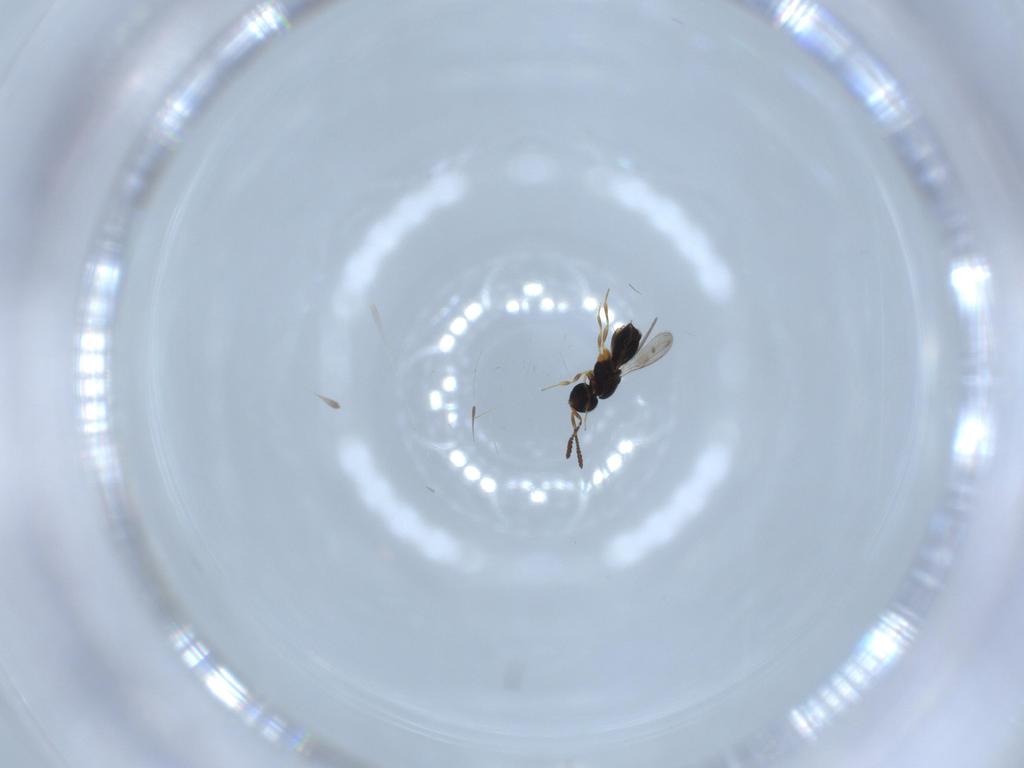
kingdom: Animalia
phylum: Arthropoda
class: Insecta
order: Hymenoptera
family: Scelionidae
